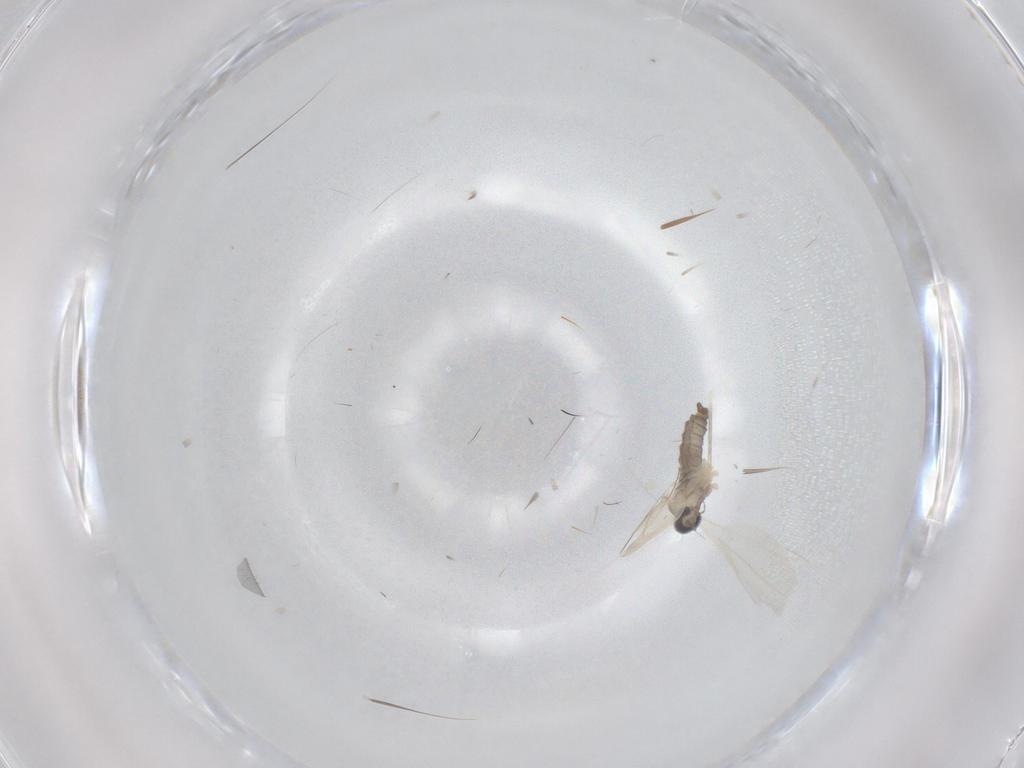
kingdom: Animalia
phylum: Arthropoda
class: Insecta
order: Diptera
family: Cecidomyiidae
